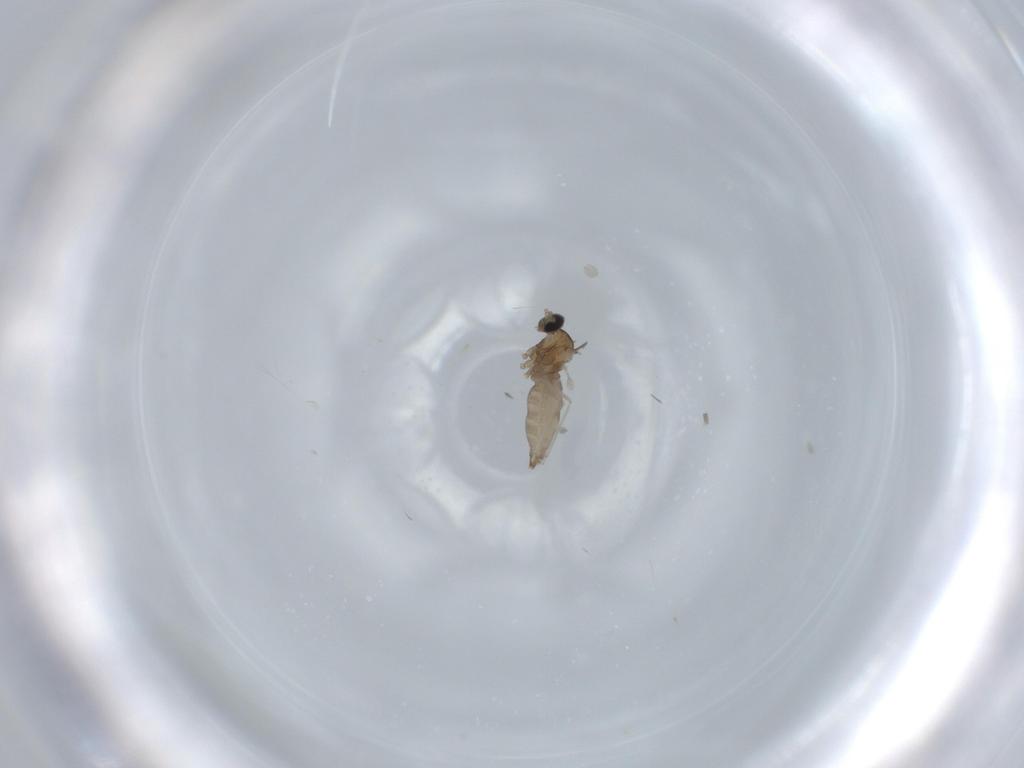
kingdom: Animalia
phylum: Arthropoda
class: Insecta
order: Diptera
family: Cecidomyiidae
